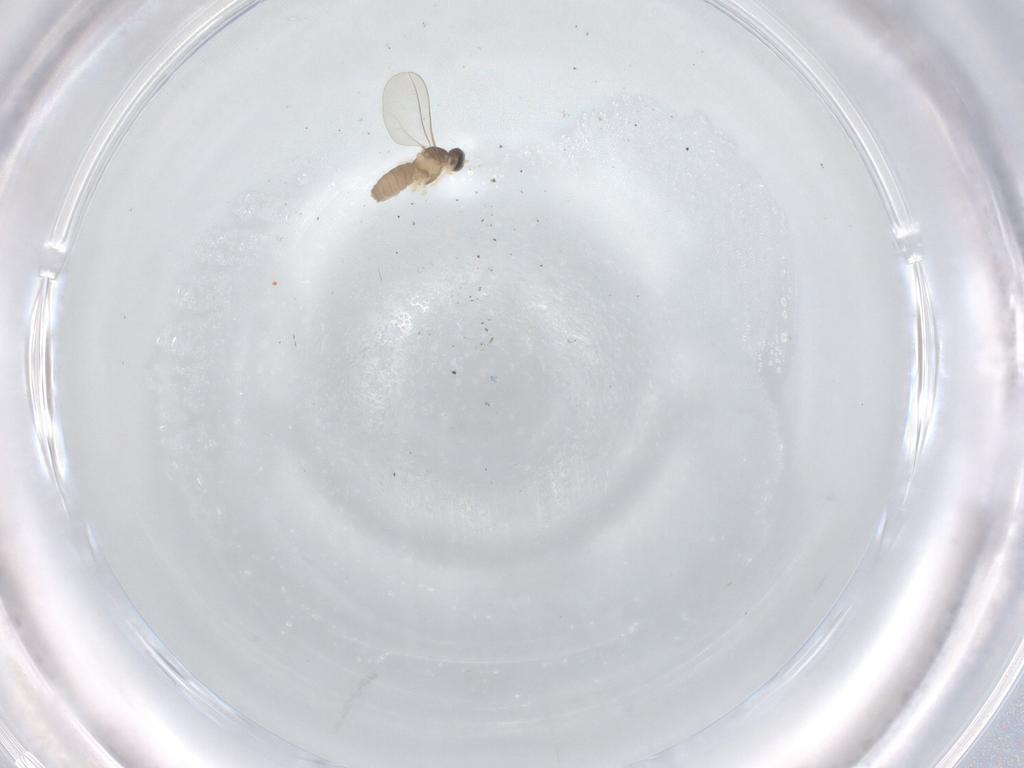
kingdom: Animalia
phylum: Arthropoda
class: Insecta
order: Diptera
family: Cecidomyiidae
